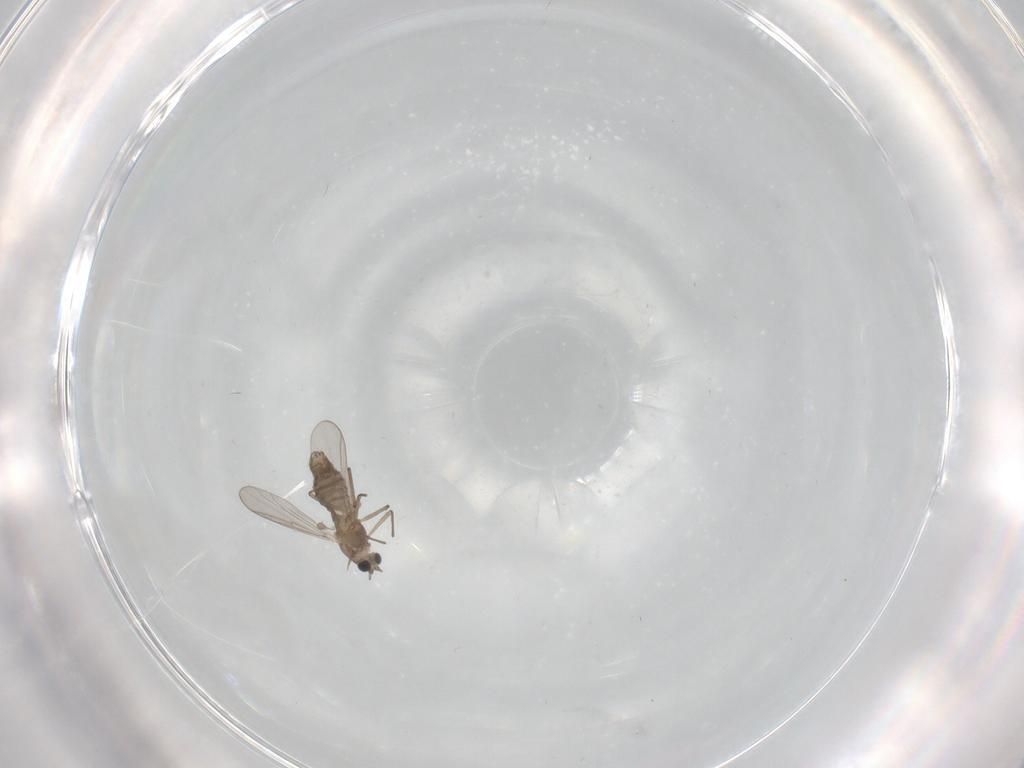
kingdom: Animalia
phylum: Arthropoda
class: Insecta
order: Diptera
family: Chironomidae
